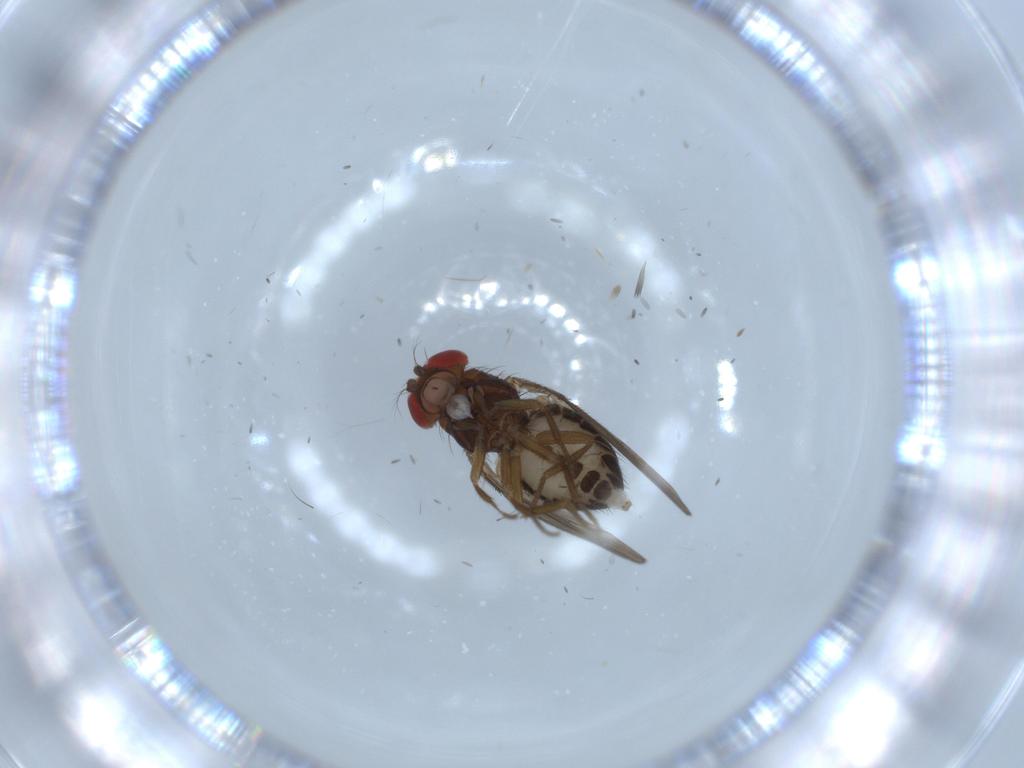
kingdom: Animalia
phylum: Arthropoda
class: Insecta
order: Diptera
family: Drosophilidae
